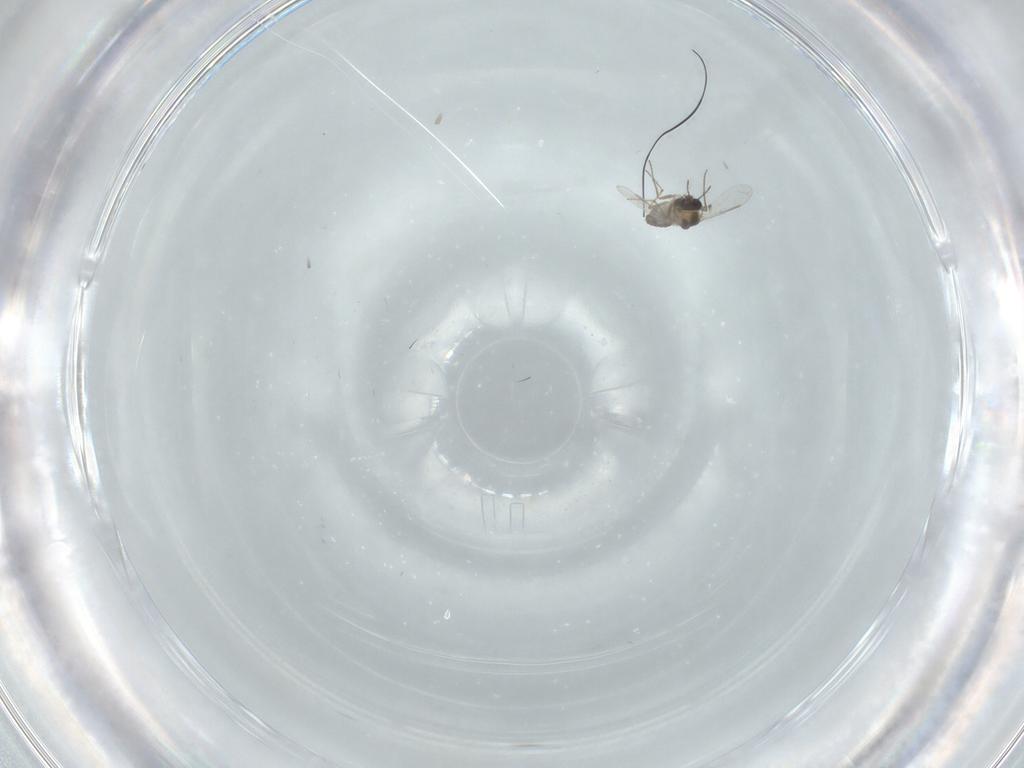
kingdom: Animalia
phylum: Arthropoda
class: Insecta
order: Diptera
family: Chironomidae
